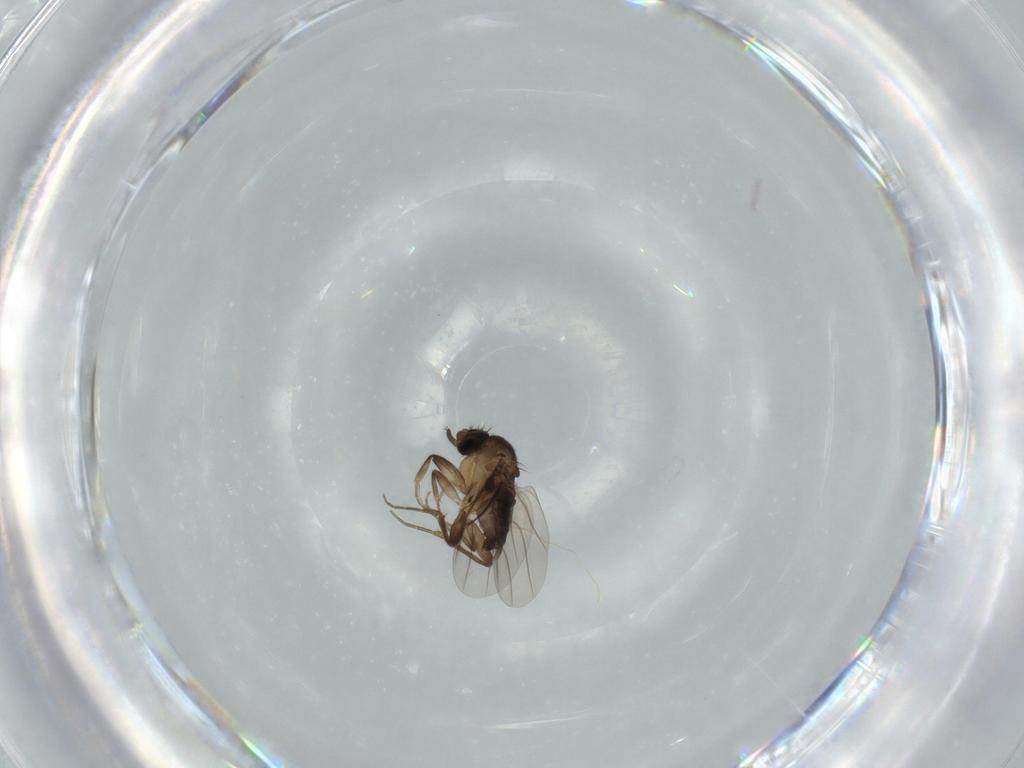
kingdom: Animalia
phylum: Arthropoda
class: Insecta
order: Diptera
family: Phoridae
